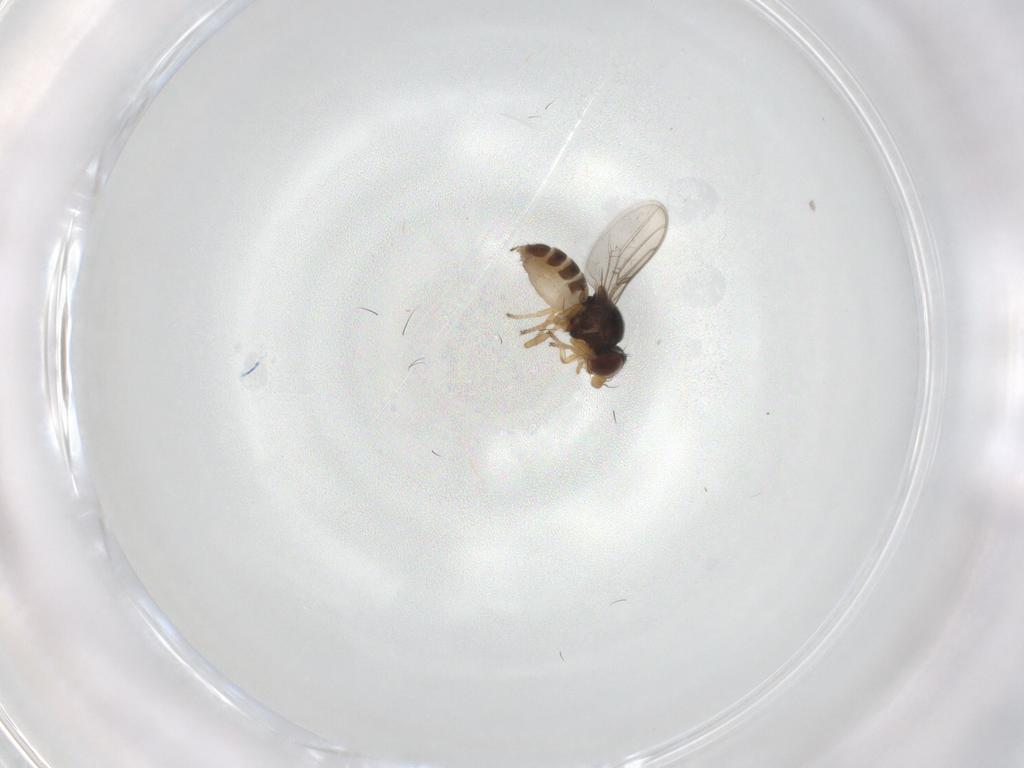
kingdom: Animalia
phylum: Arthropoda
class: Insecta
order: Diptera
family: Chloropidae
